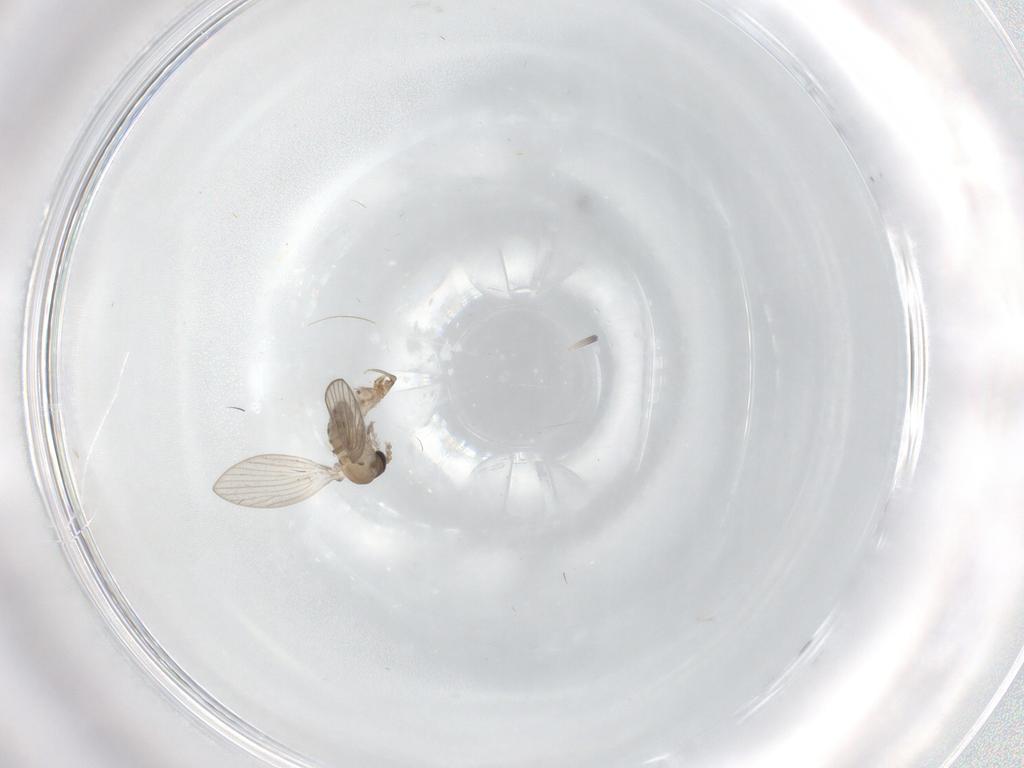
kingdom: Animalia
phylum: Arthropoda
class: Insecta
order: Diptera
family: Psychodidae
